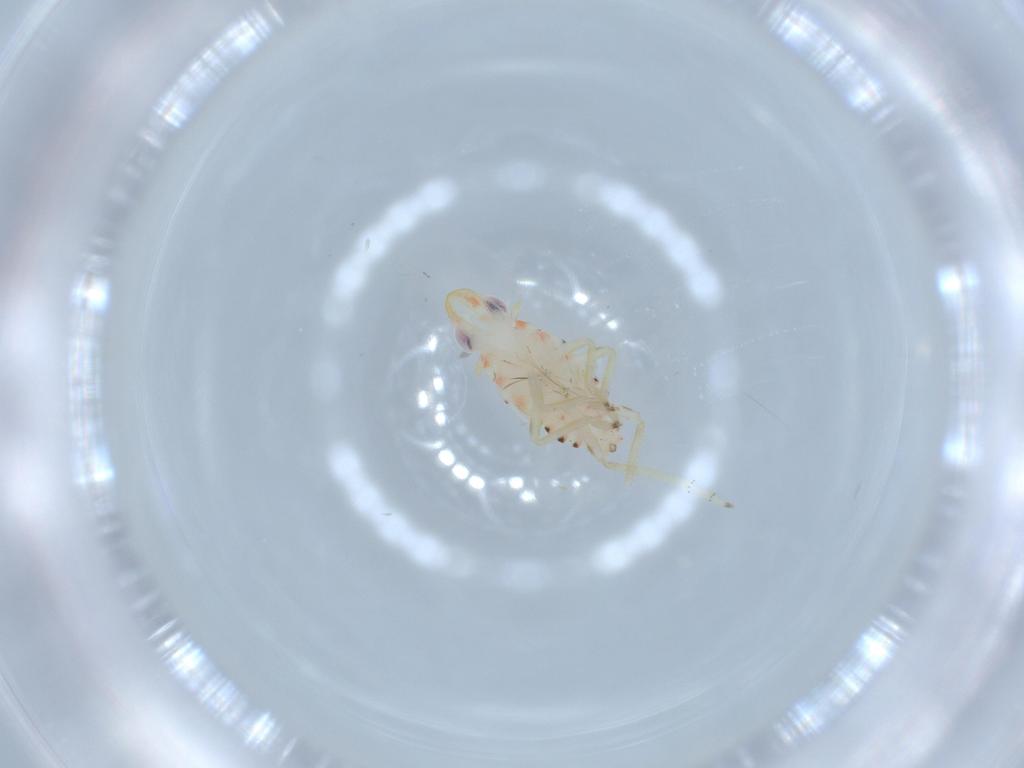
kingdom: Animalia
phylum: Arthropoda
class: Insecta
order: Hemiptera
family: Tropiduchidae
